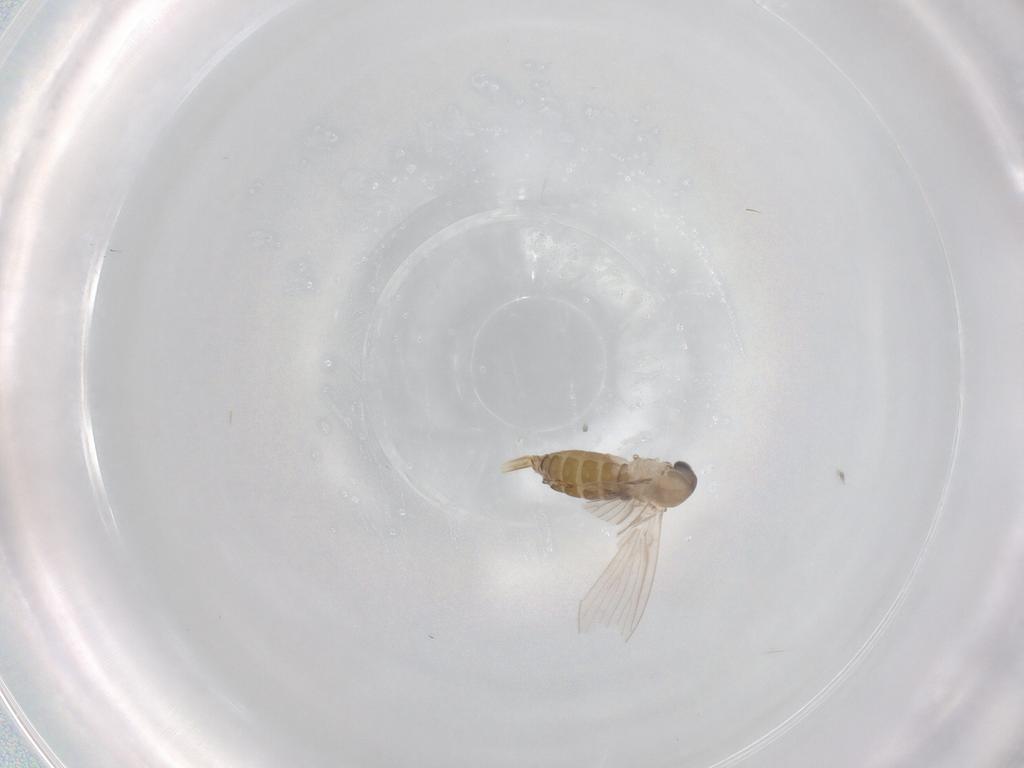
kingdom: Animalia
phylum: Arthropoda
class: Insecta
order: Diptera
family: Psychodidae
